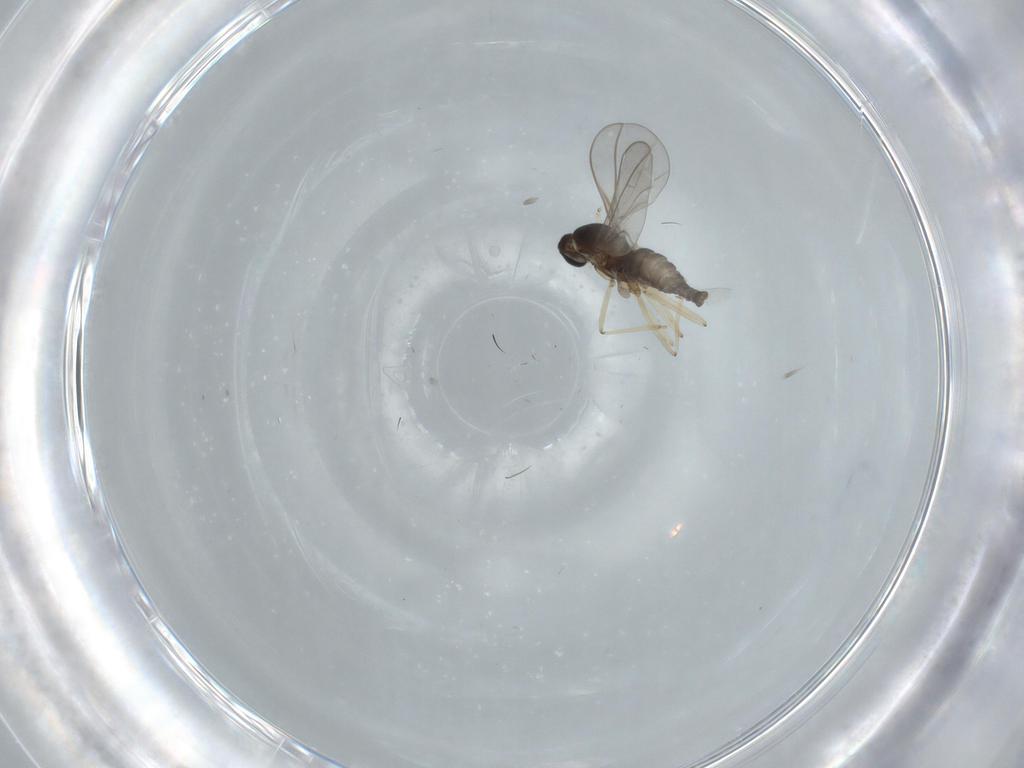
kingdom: Animalia
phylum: Arthropoda
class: Insecta
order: Diptera
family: Cecidomyiidae
